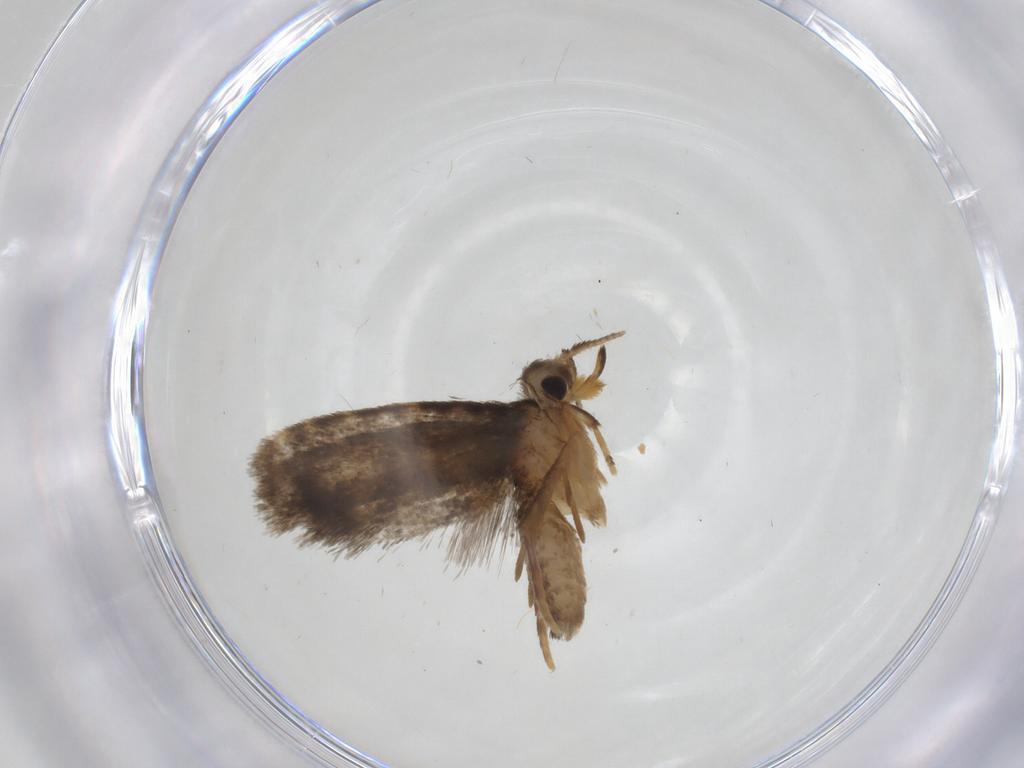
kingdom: Animalia
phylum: Arthropoda
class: Insecta
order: Lepidoptera
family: Psychidae
